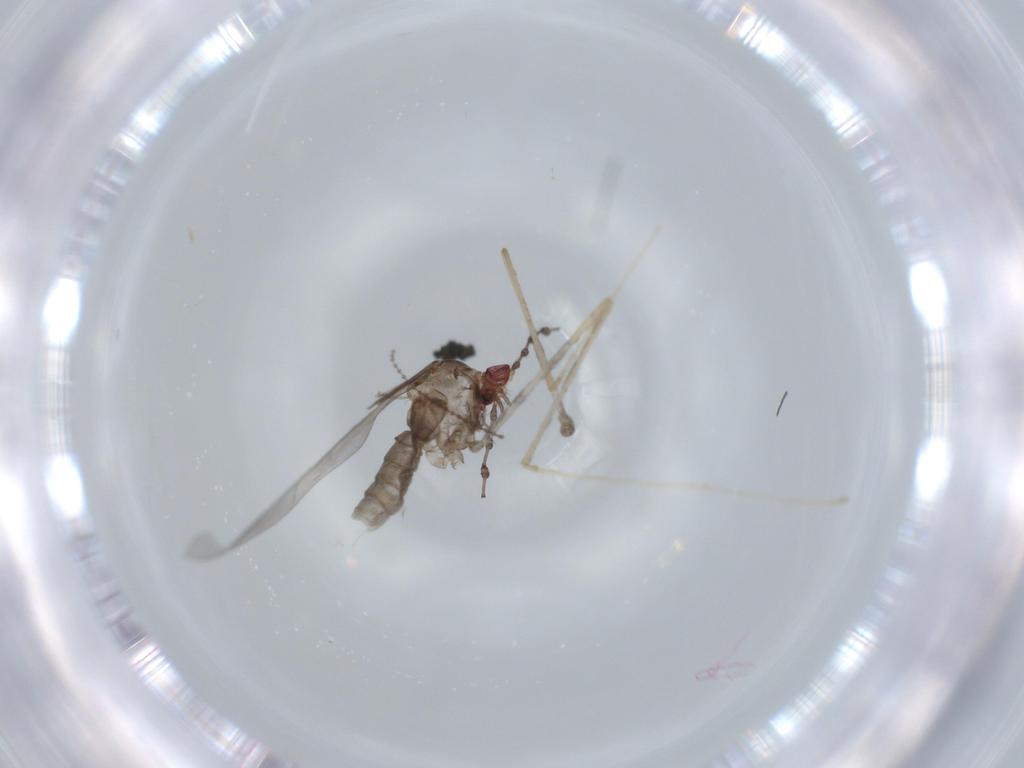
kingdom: Animalia
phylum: Arthropoda
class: Insecta
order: Diptera
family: Cecidomyiidae
